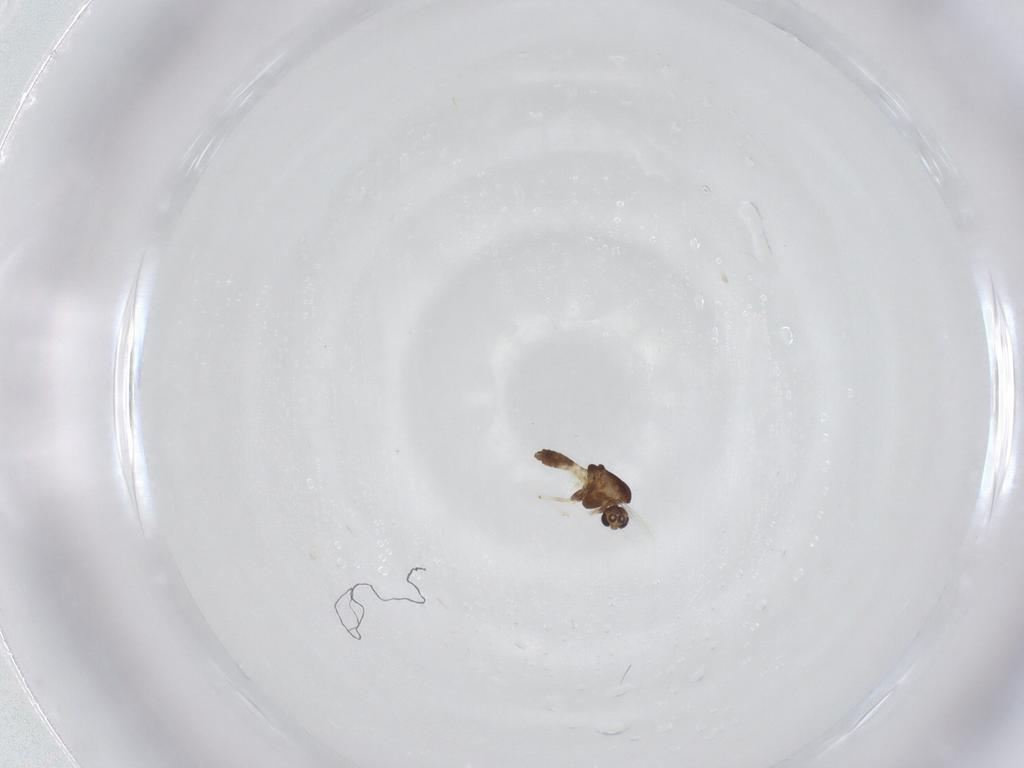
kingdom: Animalia
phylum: Arthropoda
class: Insecta
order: Diptera
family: Chironomidae
